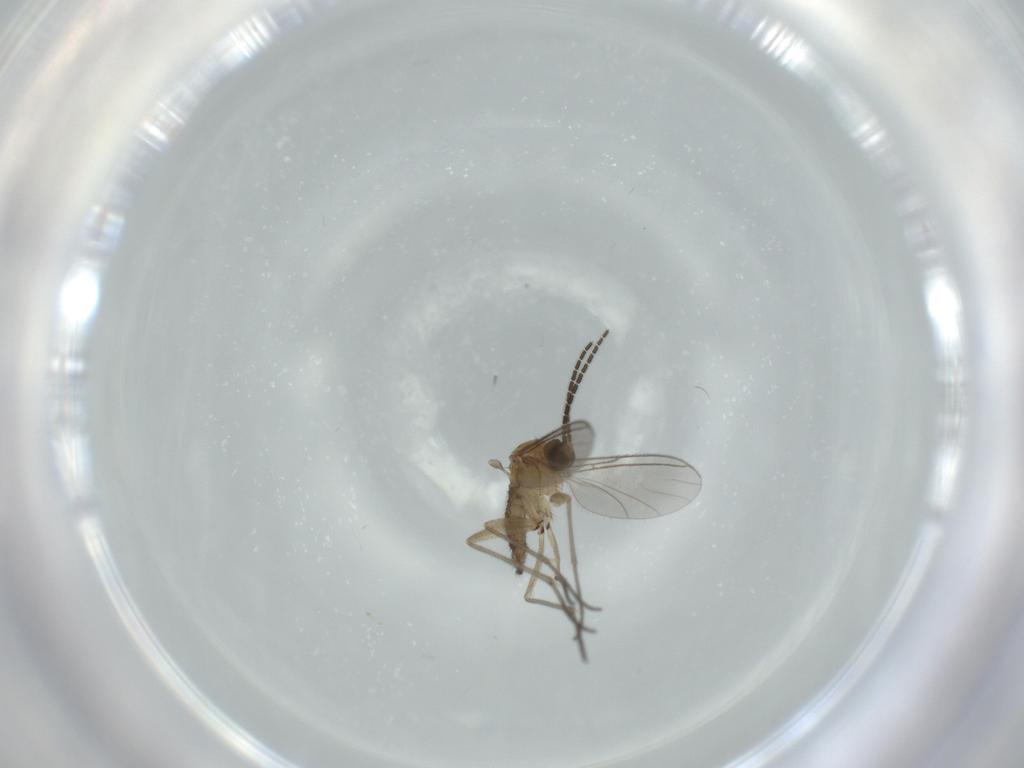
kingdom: Animalia
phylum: Arthropoda
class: Insecta
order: Diptera
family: Sciaridae
